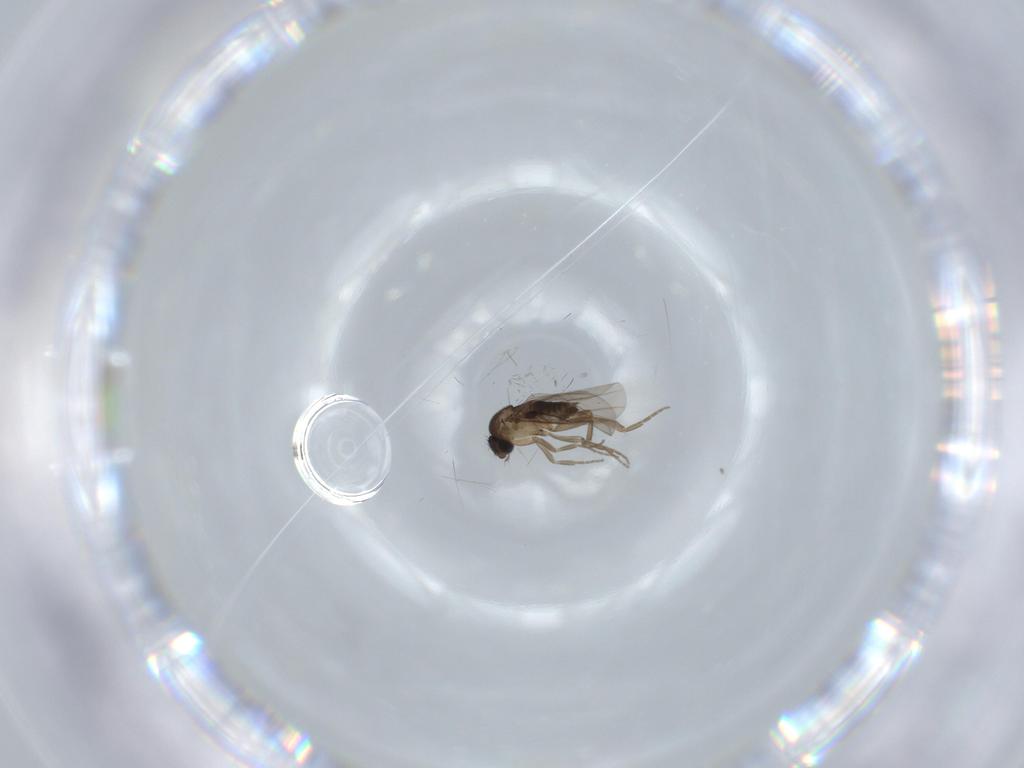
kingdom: Animalia
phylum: Arthropoda
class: Insecta
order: Diptera
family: Phoridae
